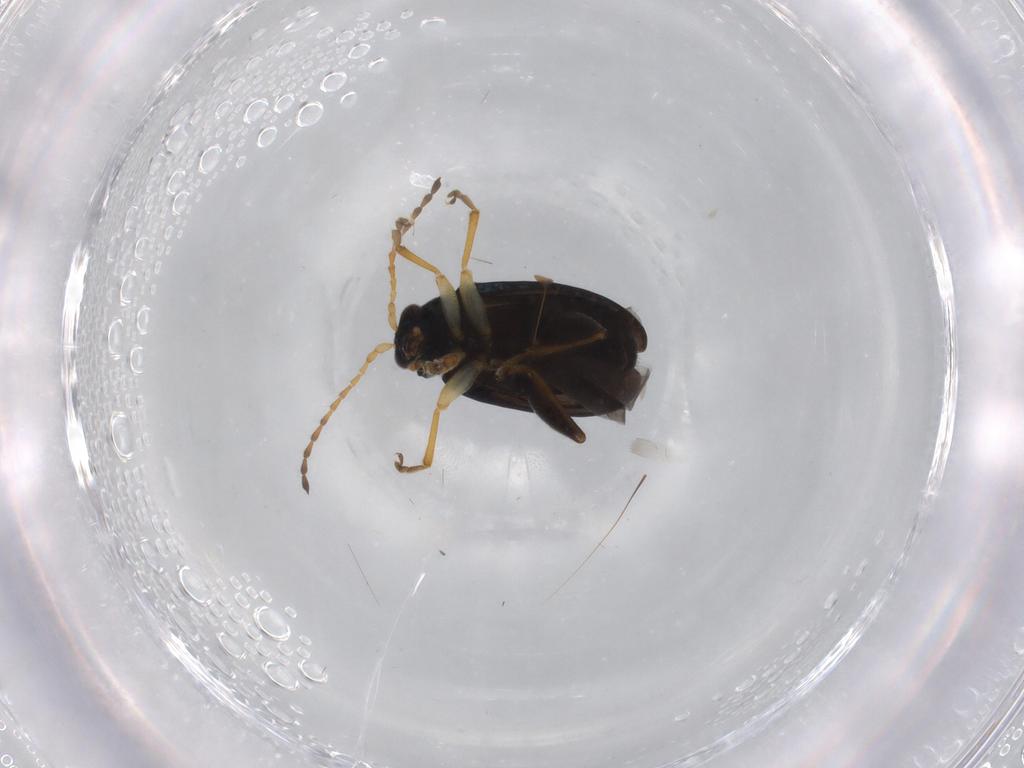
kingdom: Animalia
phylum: Arthropoda
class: Insecta
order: Coleoptera
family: Chrysomelidae
